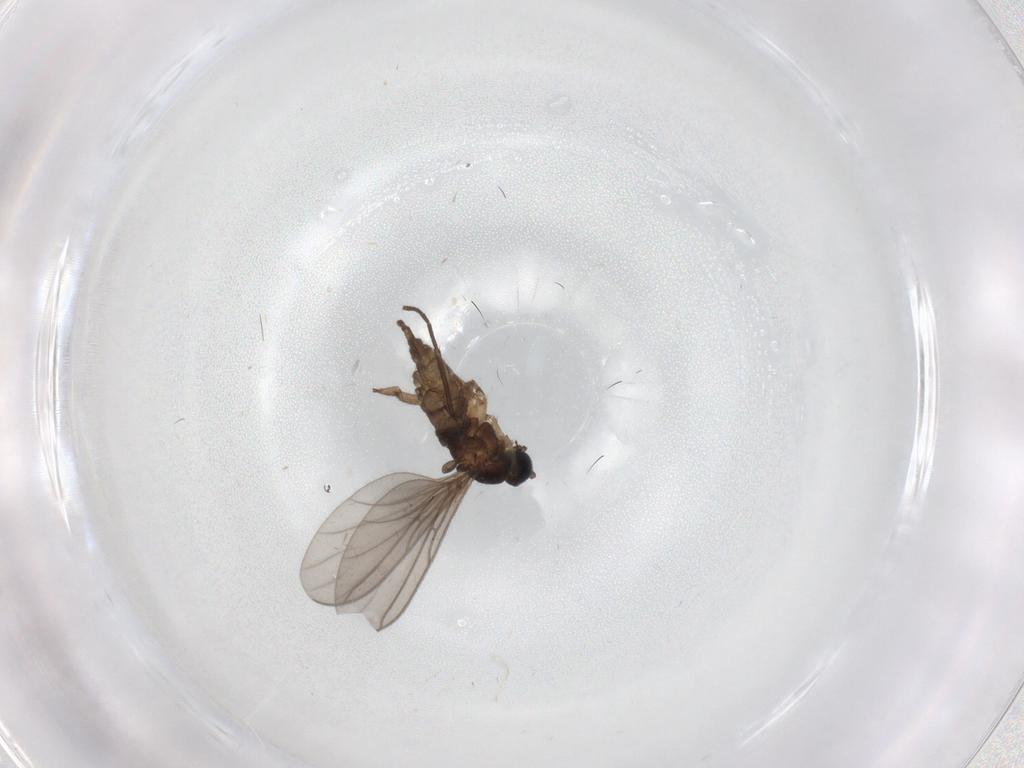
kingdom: Animalia
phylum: Arthropoda
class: Insecta
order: Diptera
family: Sciaridae
